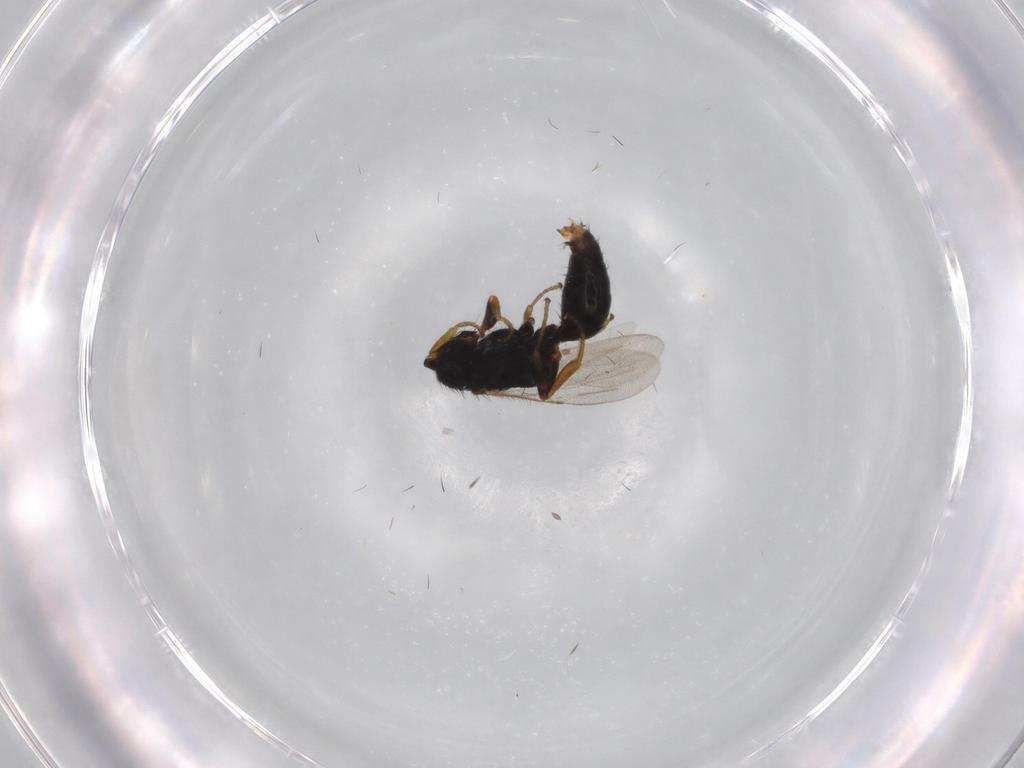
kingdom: Animalia
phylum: Arthropoda
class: Insecta
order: Hymenoptera
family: Bethylidae
